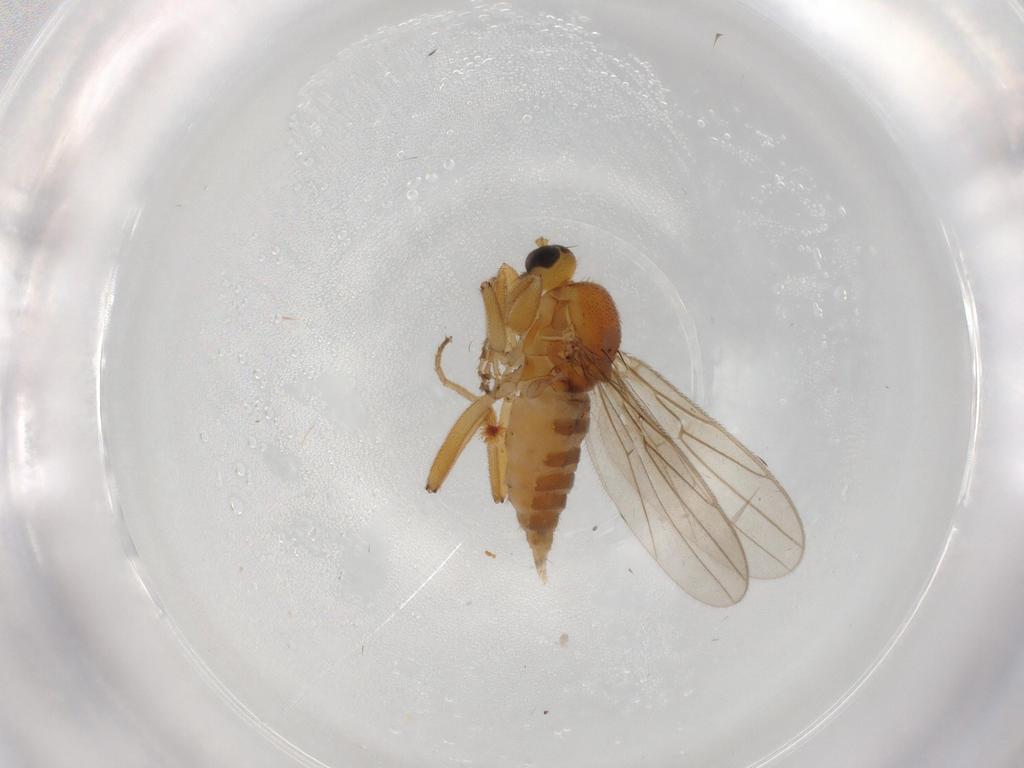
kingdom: Animalia
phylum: Arthropoda
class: Insecta
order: Diptera
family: Hybotidae
